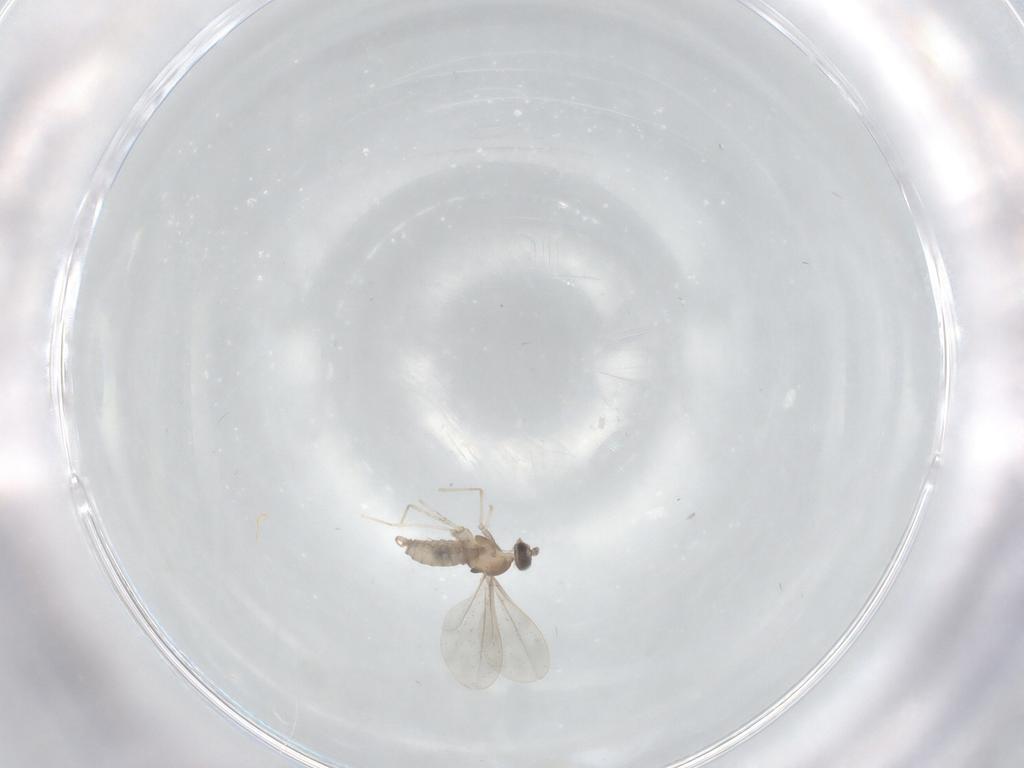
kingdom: Animalia
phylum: Arthropoda
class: Insecta
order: Diptera
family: Cecidomyiidae
